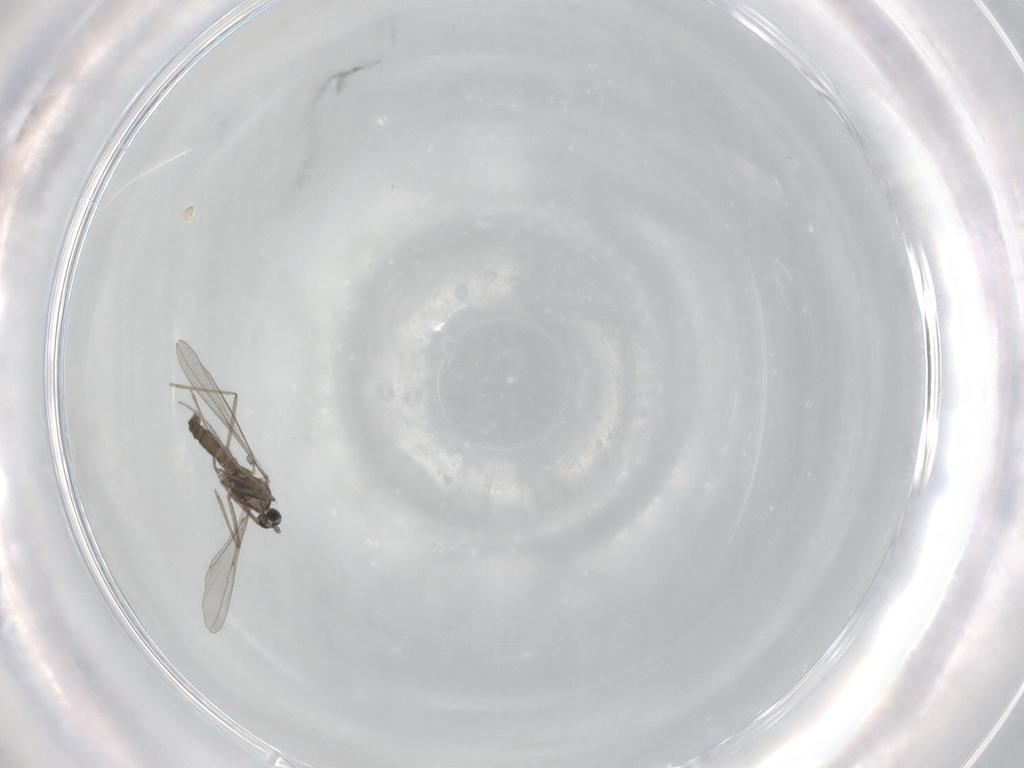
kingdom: Animalia
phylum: Arthropoda
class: Insecta
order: Diptera
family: Cecidomyiidae
